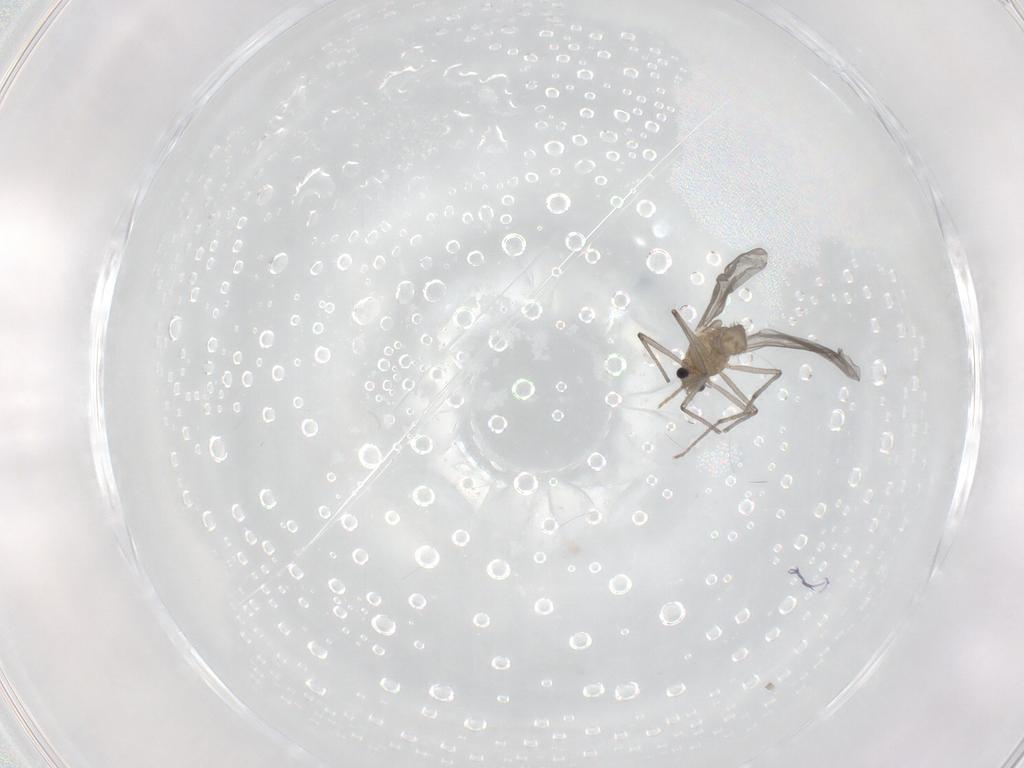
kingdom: Animalia
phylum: Arthropoda
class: Insecta
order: Diptera
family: Chironomidae
